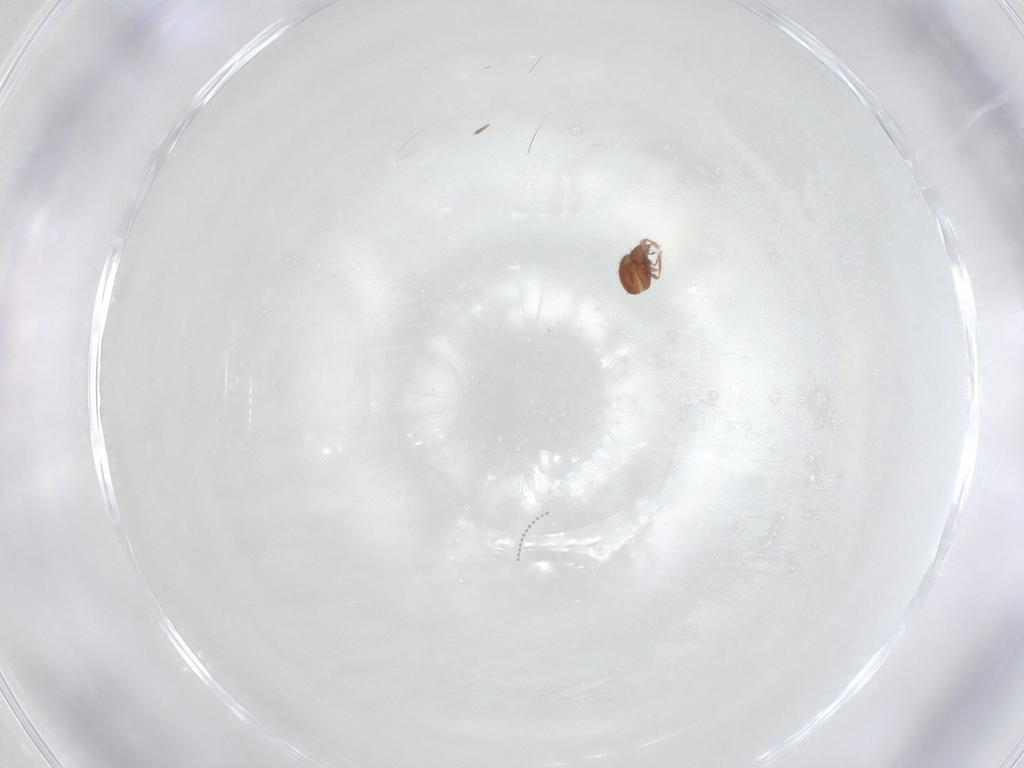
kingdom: Animalia
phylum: Arthropoda
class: Arachnida
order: Sarcoptiformes
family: Oribatulidae
